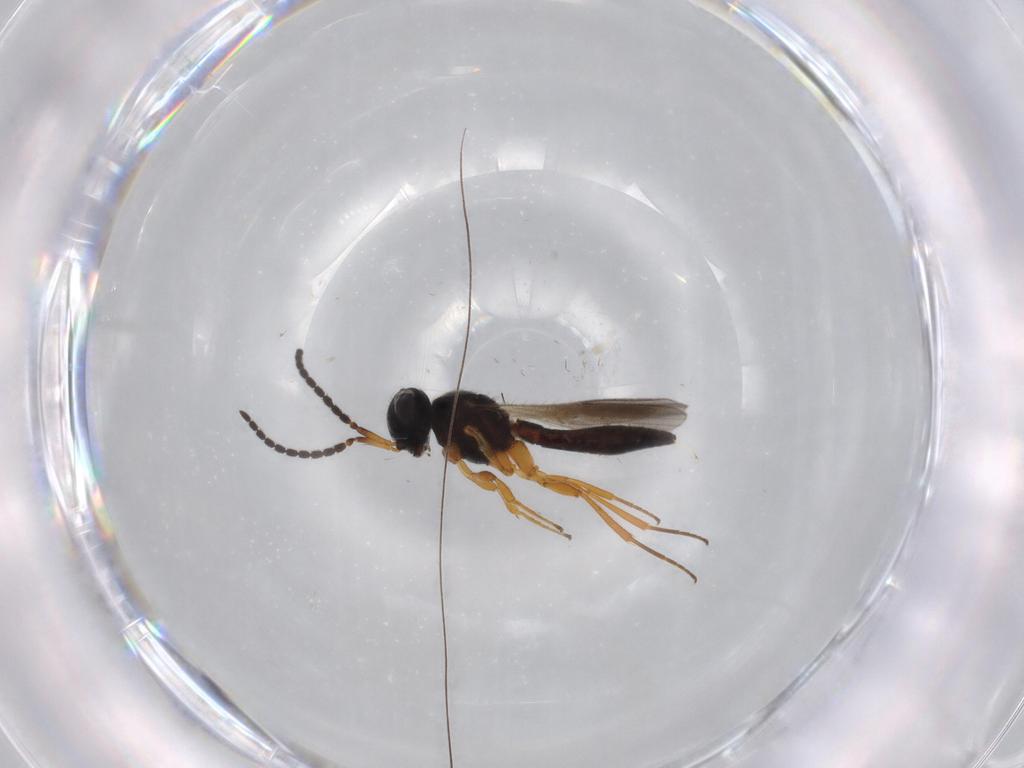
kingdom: Animalia
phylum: Arthropoda
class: Insecta
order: Hymenoptera
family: Scelionidae
